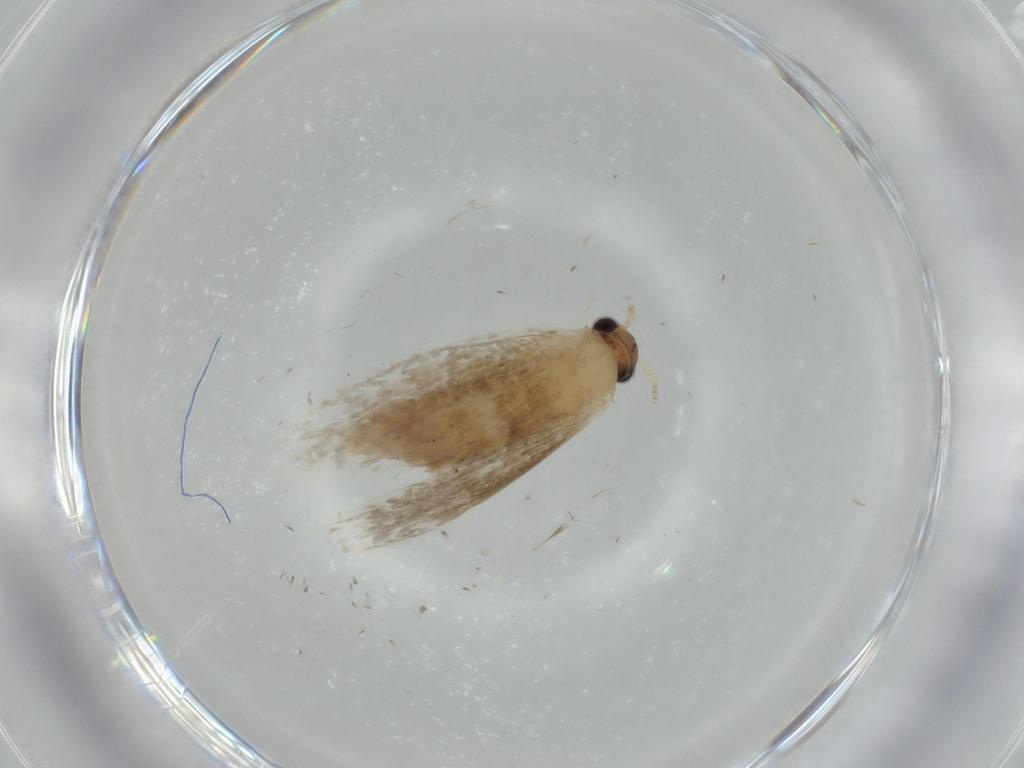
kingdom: Animalia
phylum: Arthropoda
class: Insecta
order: Lepidoptera
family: Tineidae
